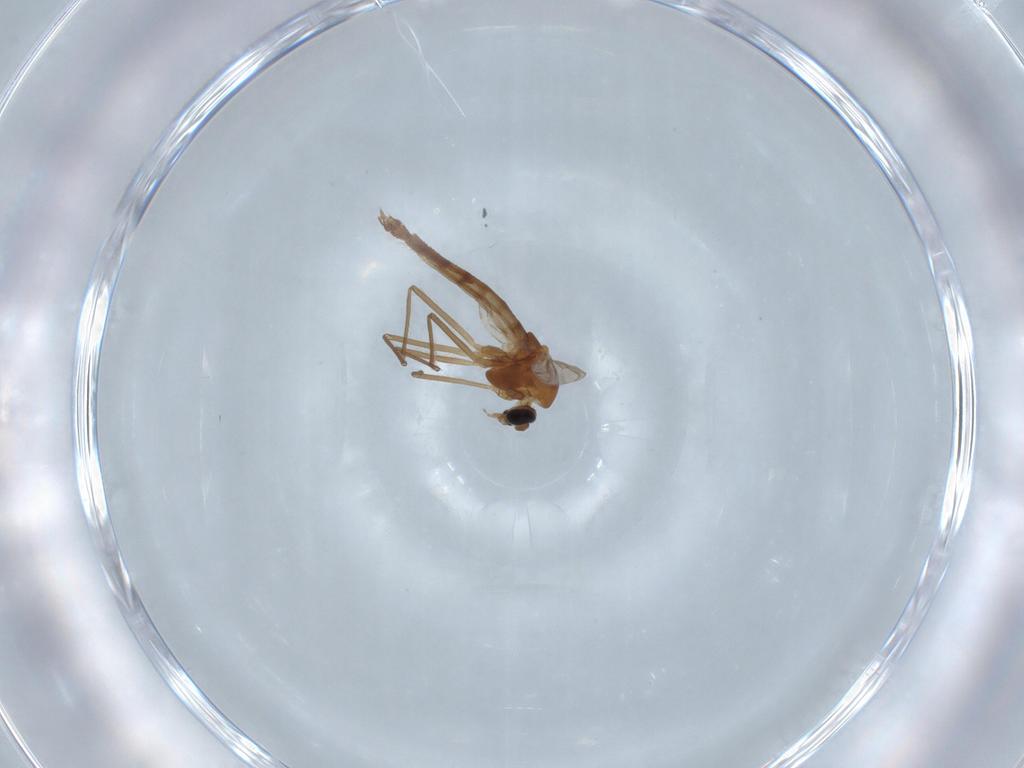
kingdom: Animalia
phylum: Arthropoda
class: Insecta
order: Diptera
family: Chironomidae
